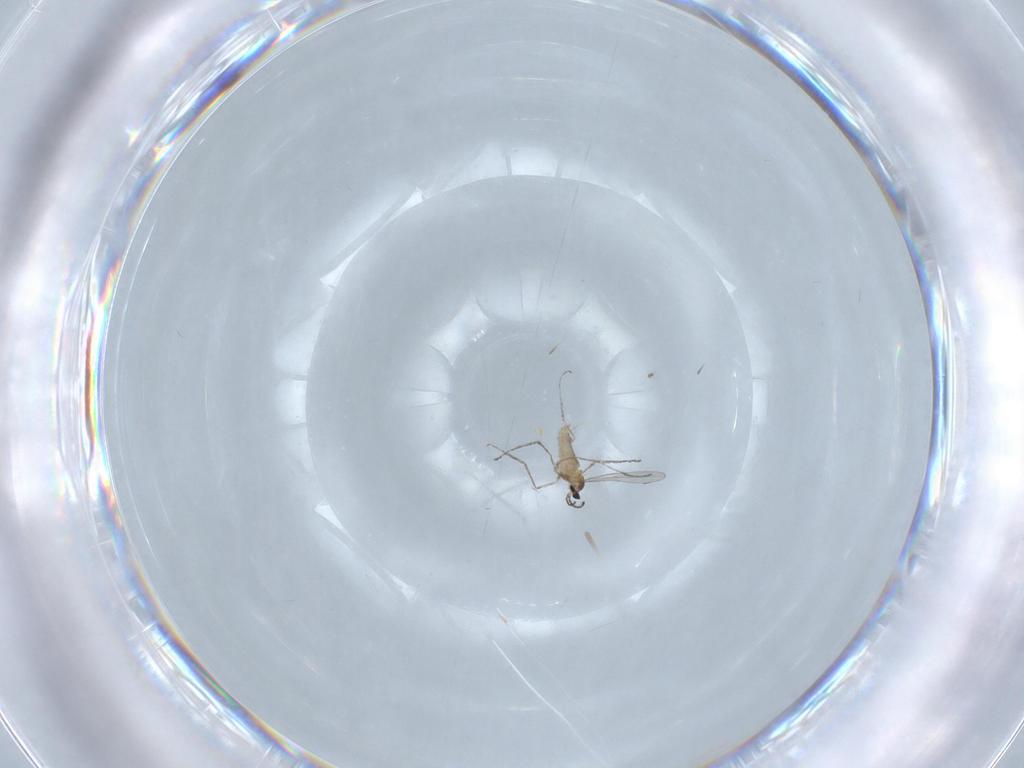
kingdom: Animalia
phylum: Arthropoda
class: Insecta
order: Diptera
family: Cecidomyiidae
